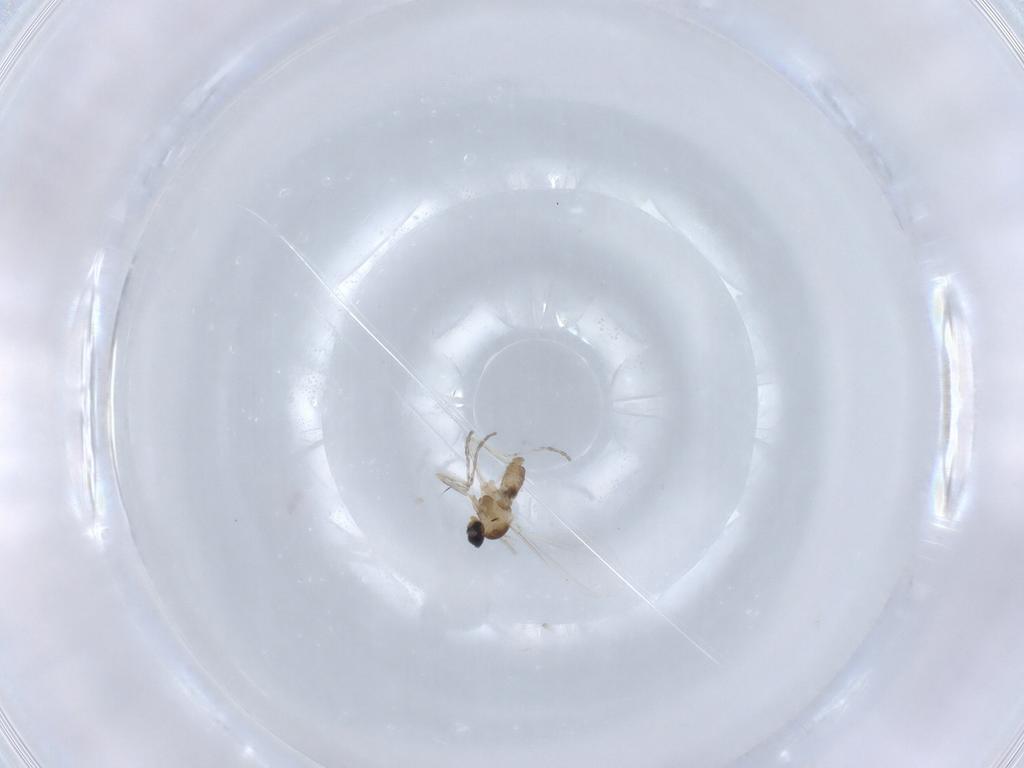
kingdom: Animalia
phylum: Arthropoda
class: Insecta
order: Diptera
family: Cecidomyiidae
